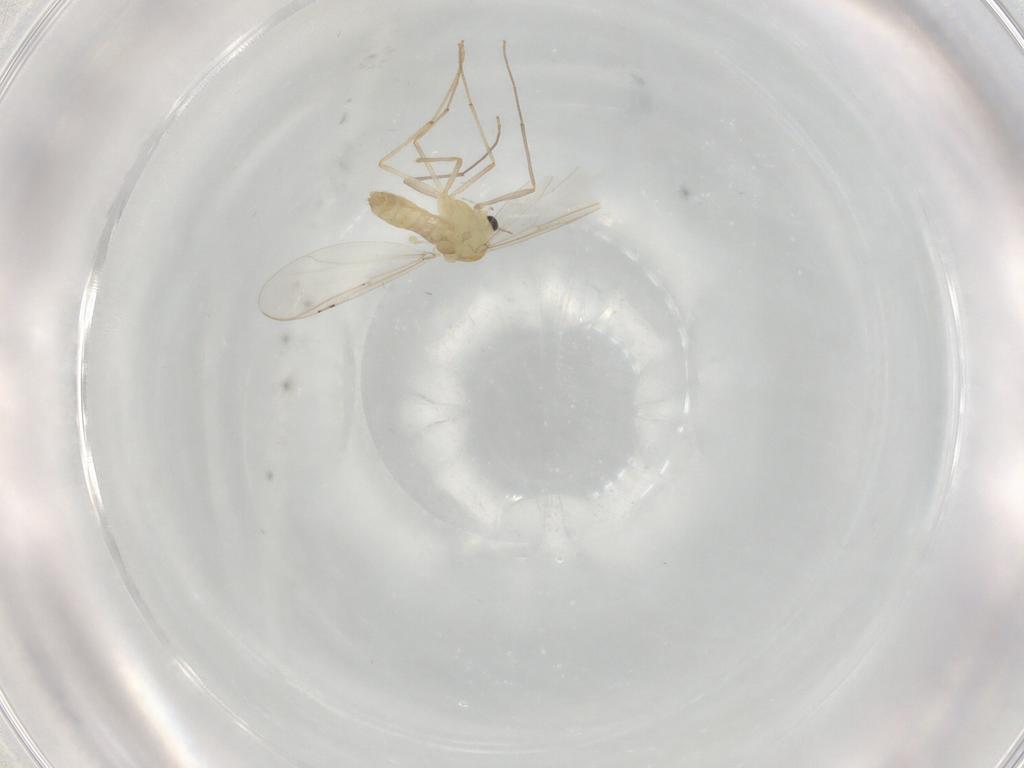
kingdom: Animalia
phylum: Arthropoda
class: Insecta
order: Diptera
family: Chironomidae
